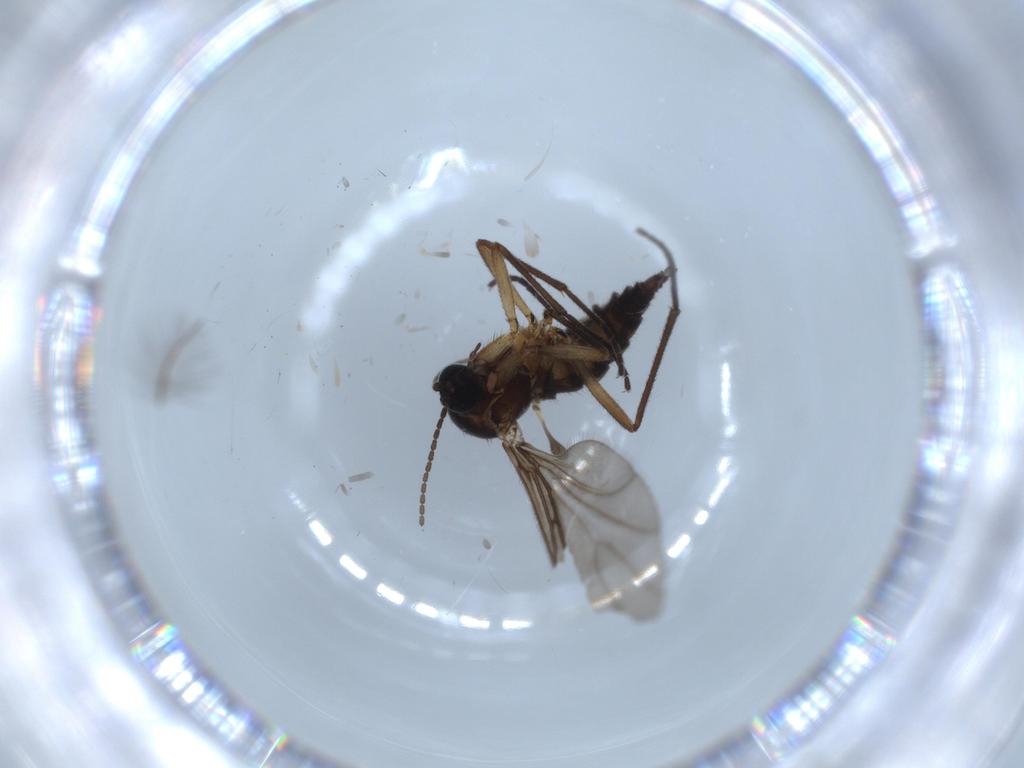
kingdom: Animalia
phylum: Arthropoda
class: Insecta
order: Diptera
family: Chironomidae
